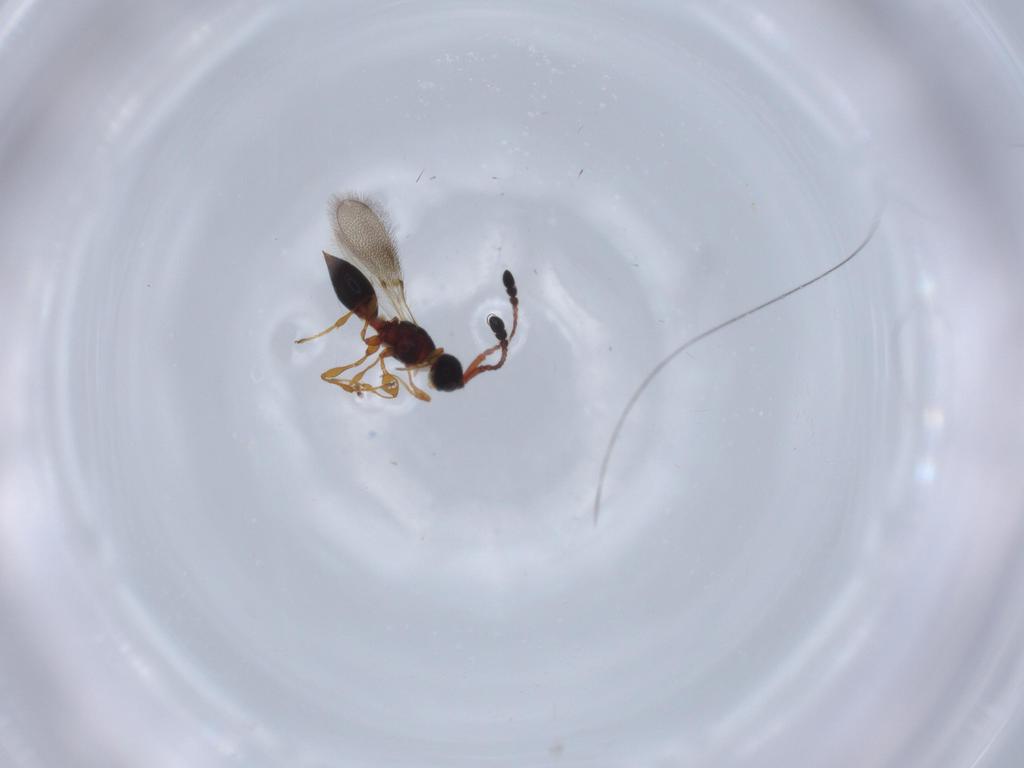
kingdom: Animalia
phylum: Arthropoda
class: Insecta
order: Hymenoptera
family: Diapriidae
